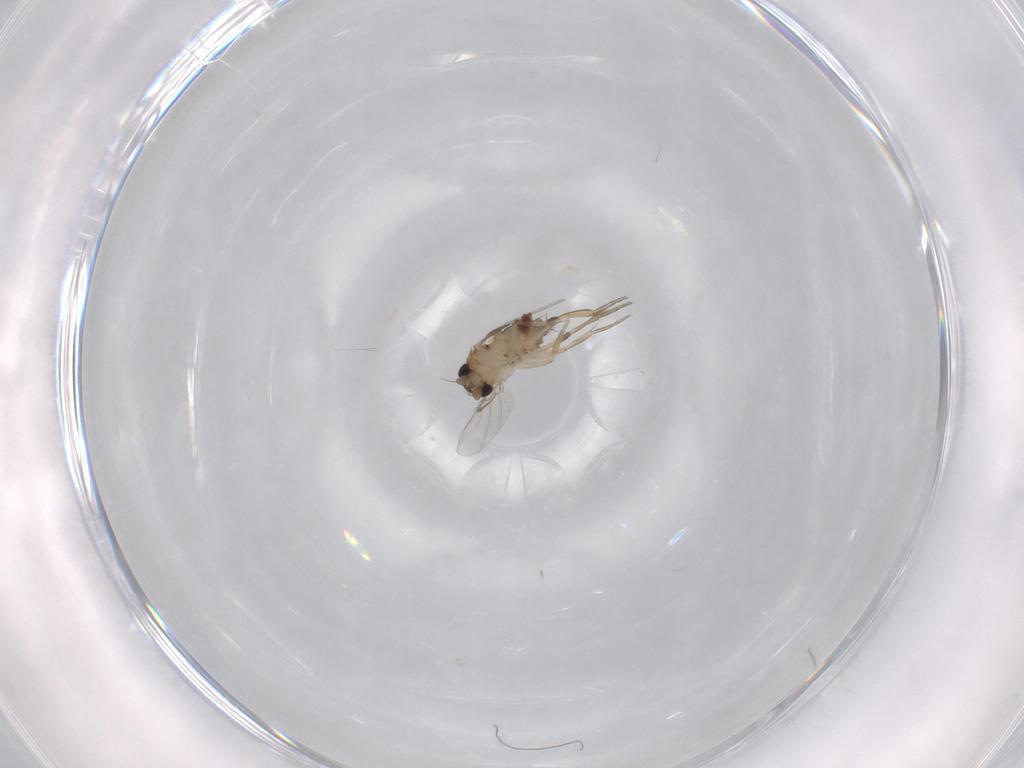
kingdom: Animalia
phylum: Arthropoda
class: Insecta
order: Diptera
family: Phoridae
